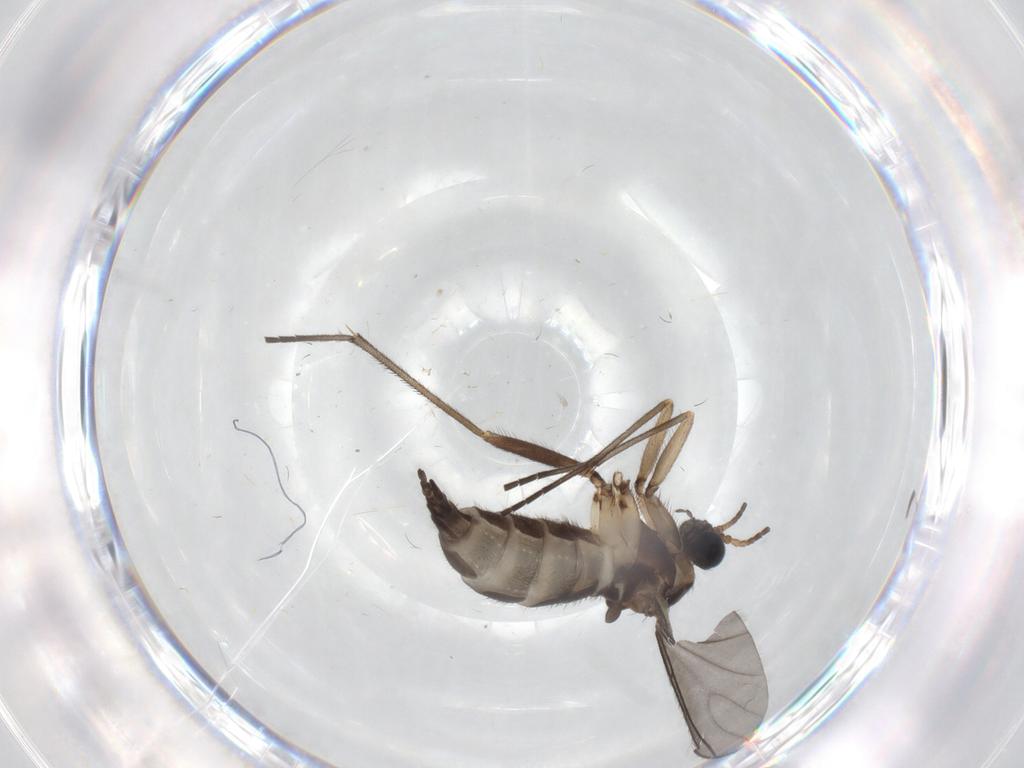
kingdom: Animalia
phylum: Arthropoda
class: Insecta
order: Diptera
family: Sciaridae
